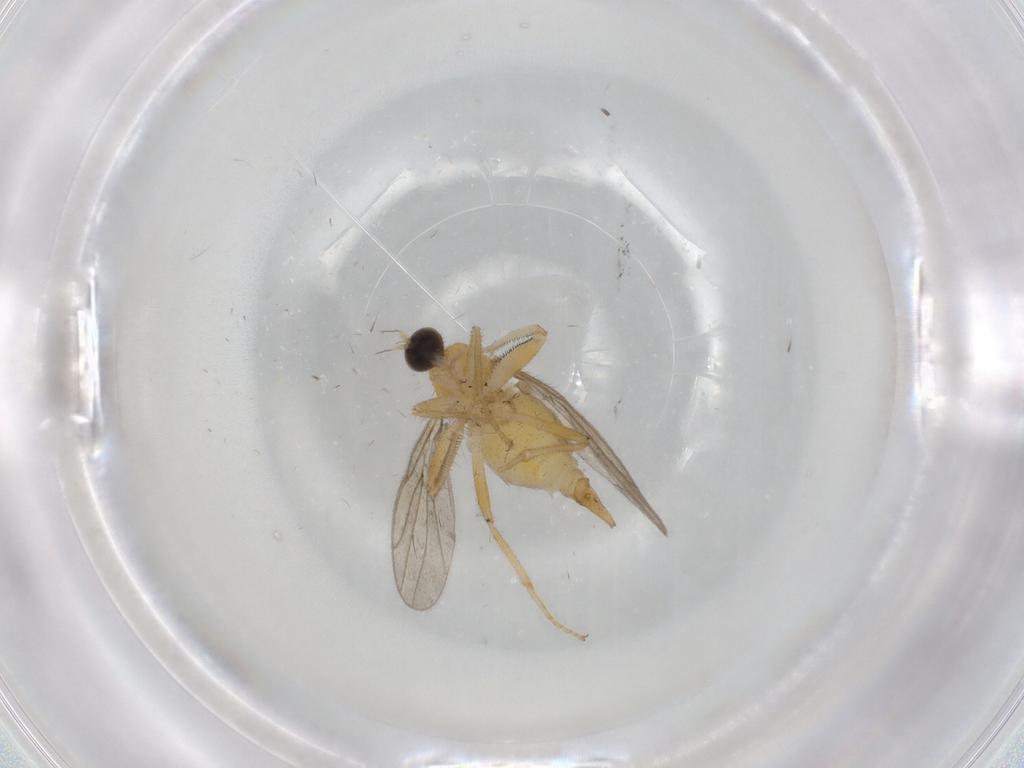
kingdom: Animalia
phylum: Arthropoda
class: Insecta
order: Diptera
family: Hybotidae
